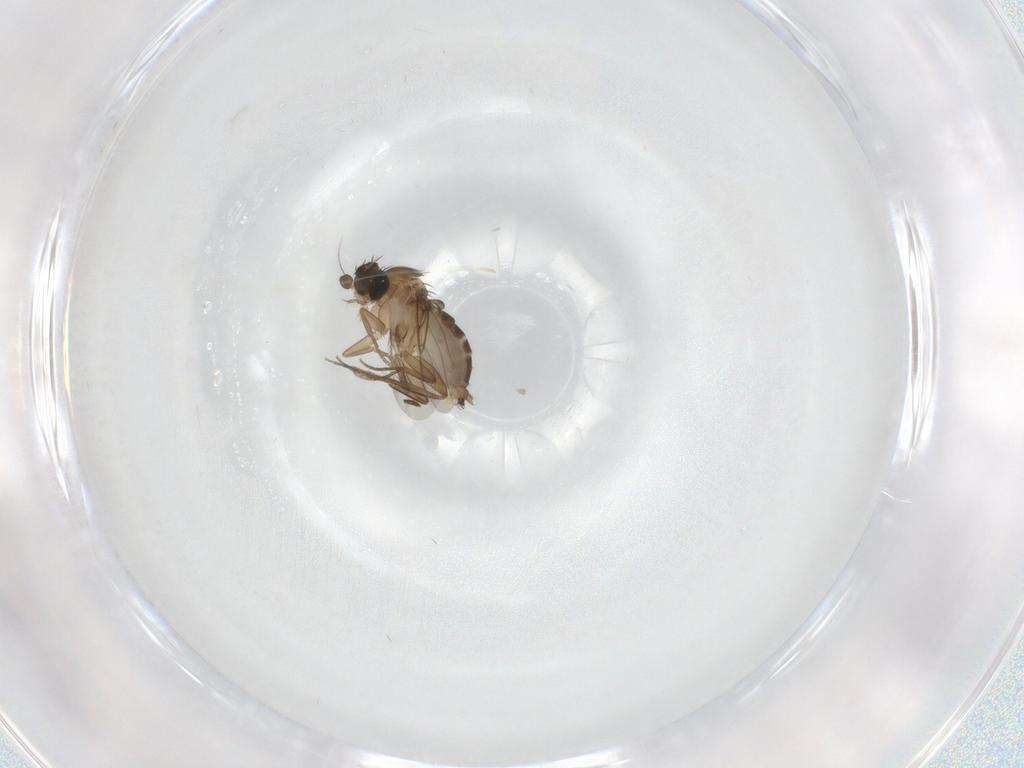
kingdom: Animalia
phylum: Arthropoda
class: Insecta
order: Diptera
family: Phoridae
